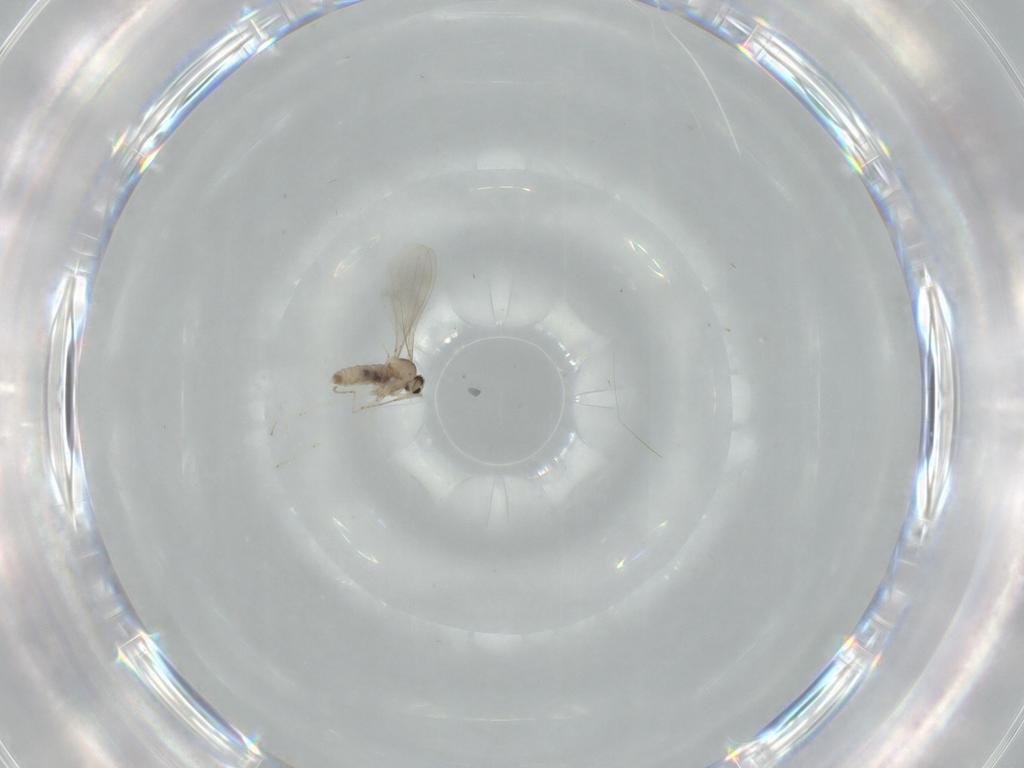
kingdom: Animalia
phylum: Arthropoda
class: Insecta
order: Diptera
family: Cecidomyiidae
